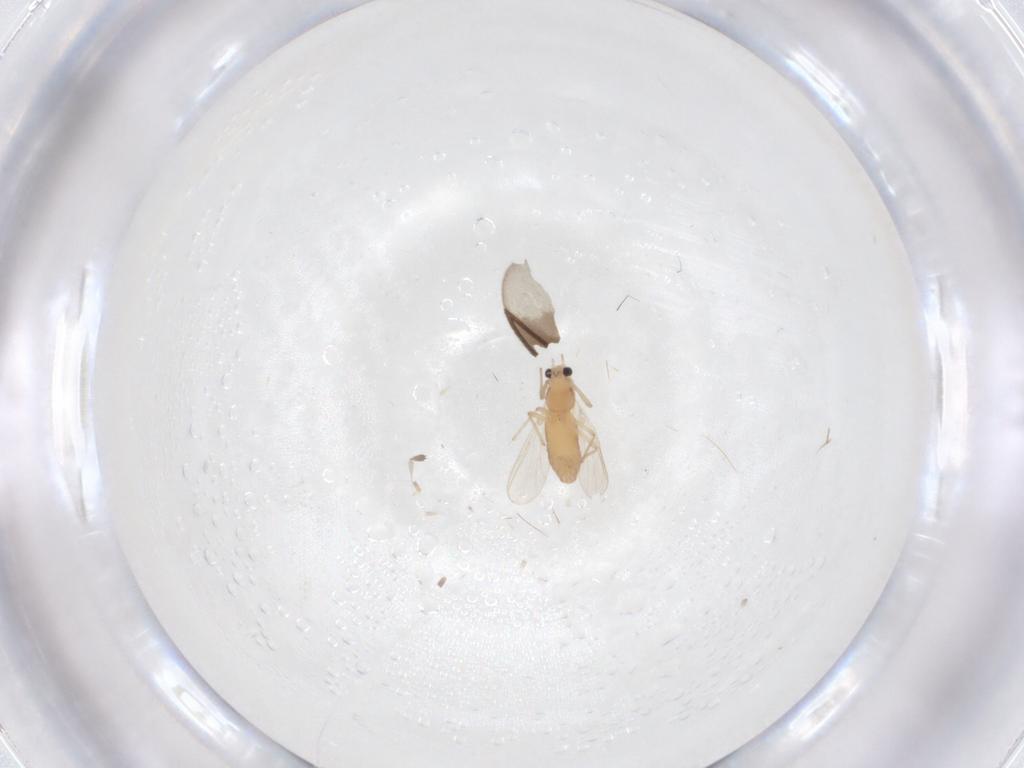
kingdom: Animalia
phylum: Arthropoda
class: Insecta
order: Diptera
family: Chironomidae
